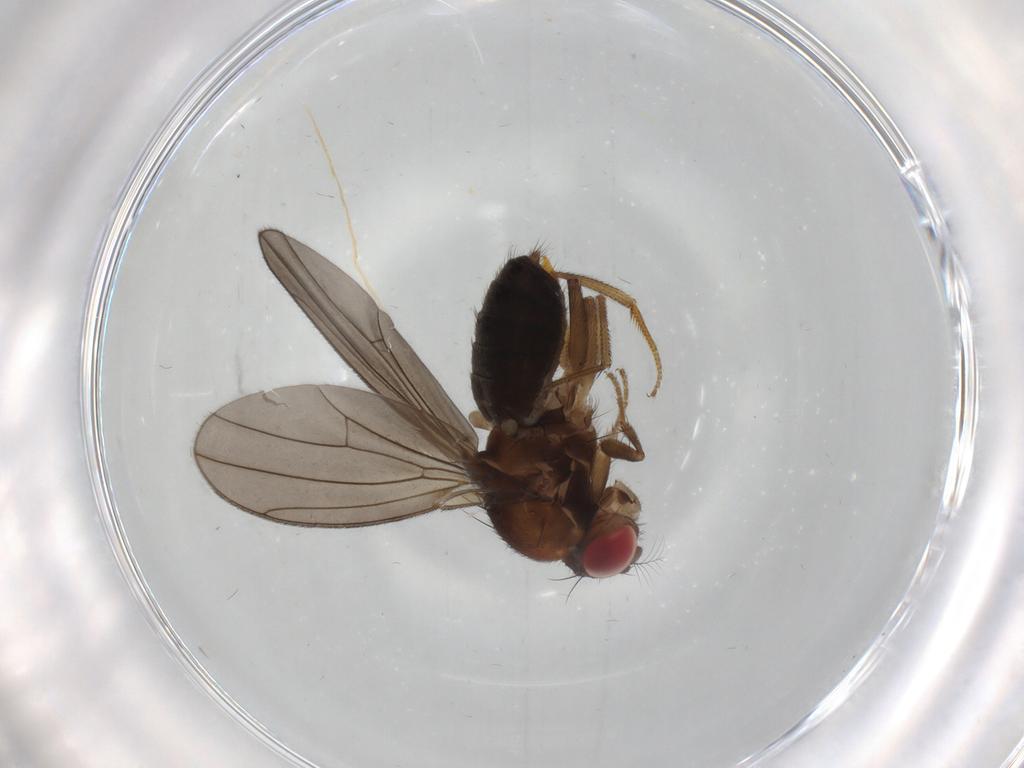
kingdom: Animalia
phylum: Arthropoda
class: Insecta
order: Diptera
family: Drosophilidae
